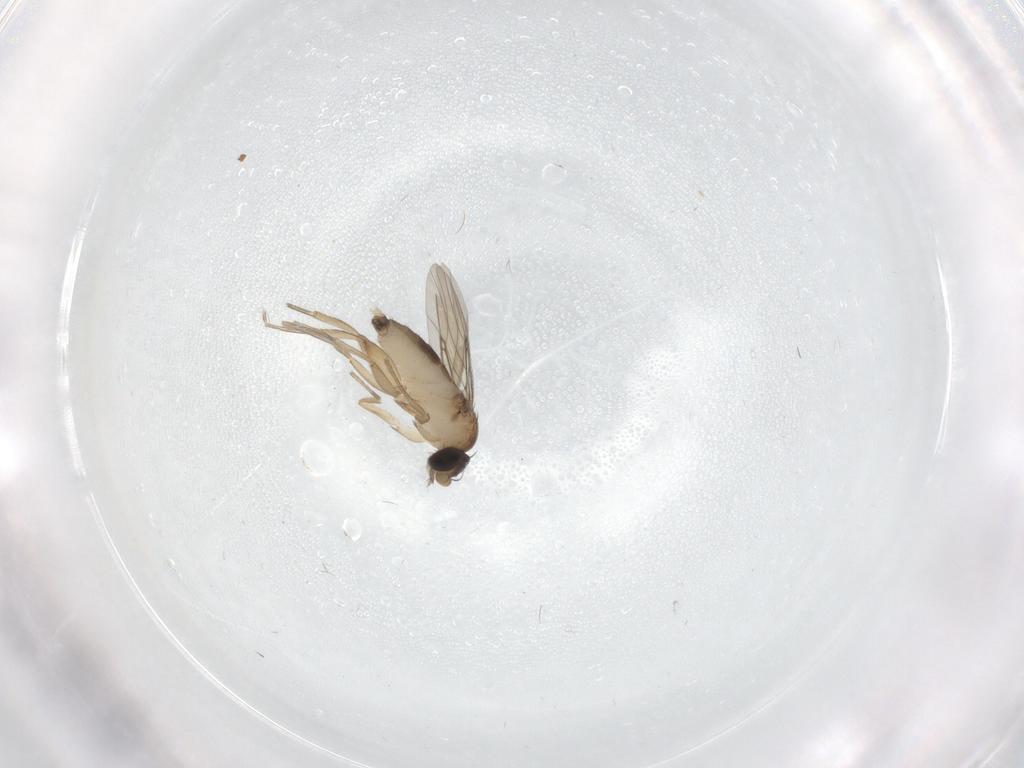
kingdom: Animalia
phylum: Arthropoda
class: Insecta
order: Diptera
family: Phoridae
